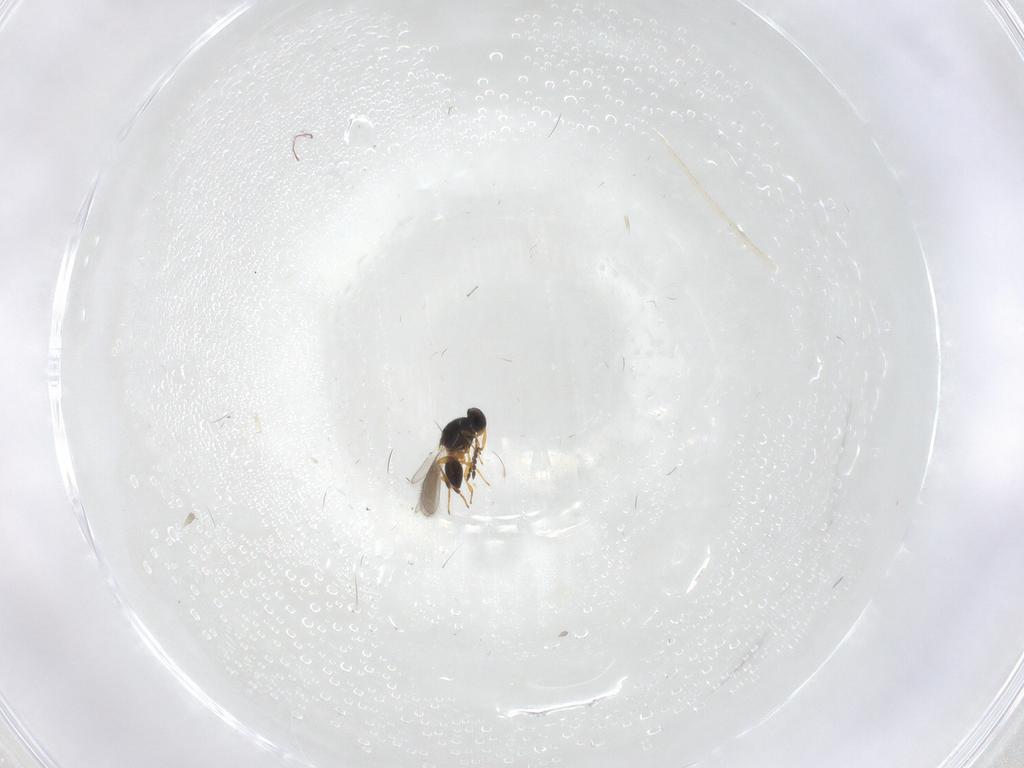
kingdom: Animalia
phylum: Arthropoda
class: Insecta
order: Hymenoptera
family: Platygastridae
